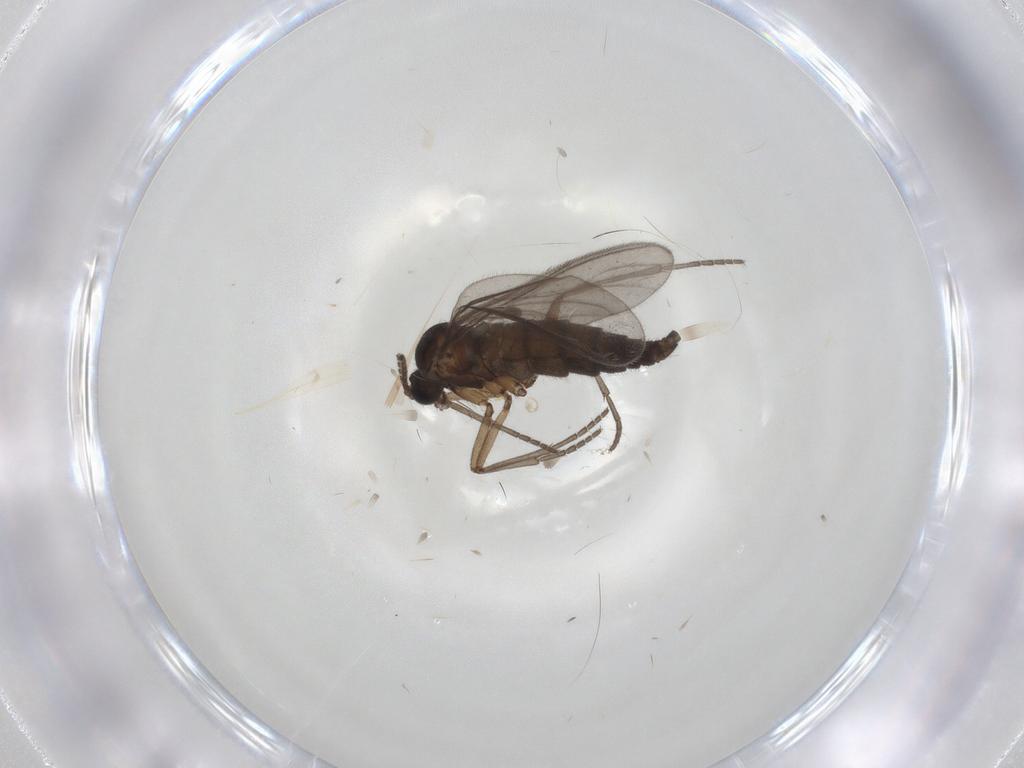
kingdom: Animalia
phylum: Arthropoda
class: Insecta
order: Diptera
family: Sciaridae
